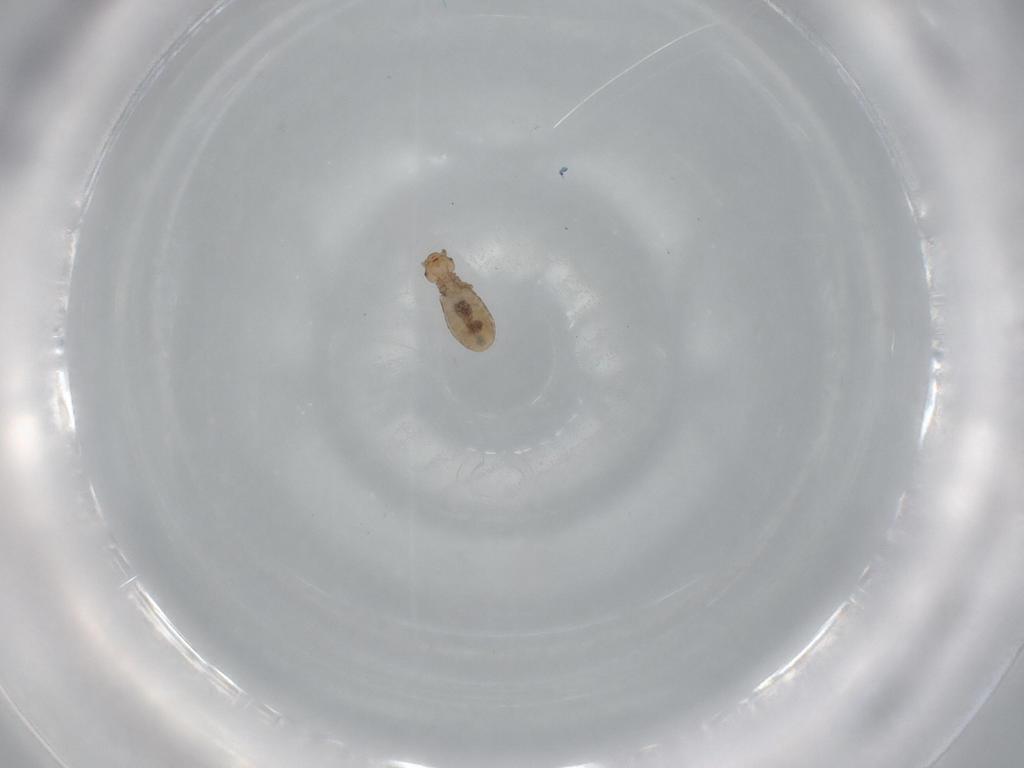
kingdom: Animalia
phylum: Arthropoda
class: Insecta
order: Psocodea
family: Liposcelididae
